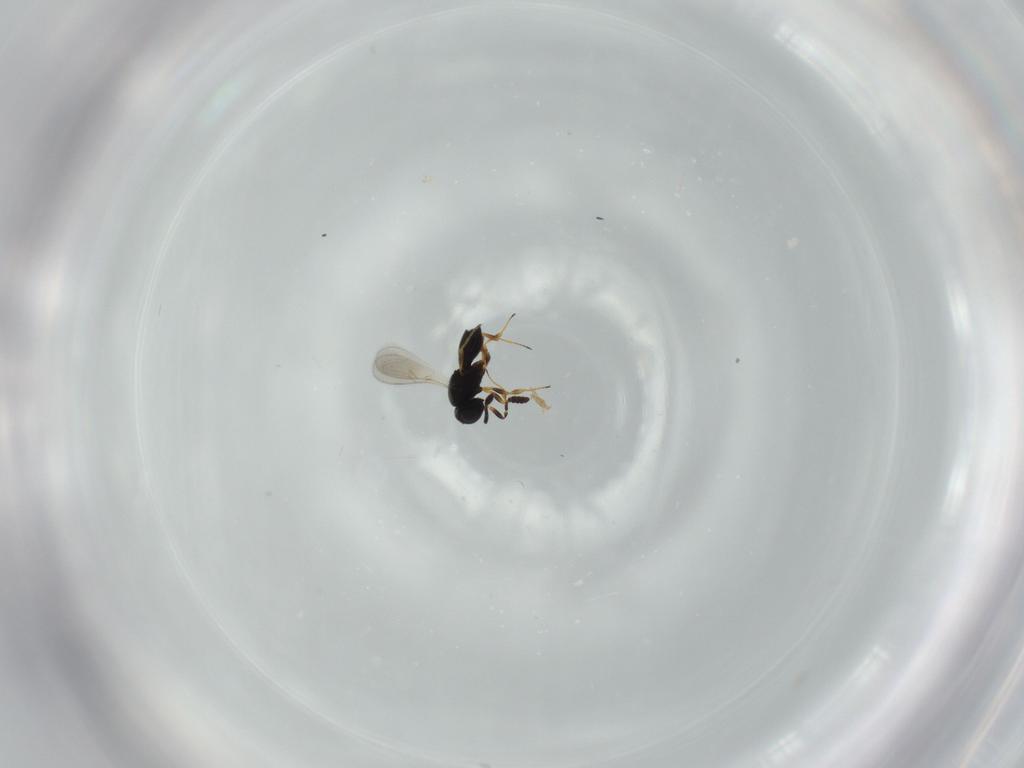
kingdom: Animalia
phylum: Arthropoda
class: Insecta
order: Hymenoptera
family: Scelionidae
